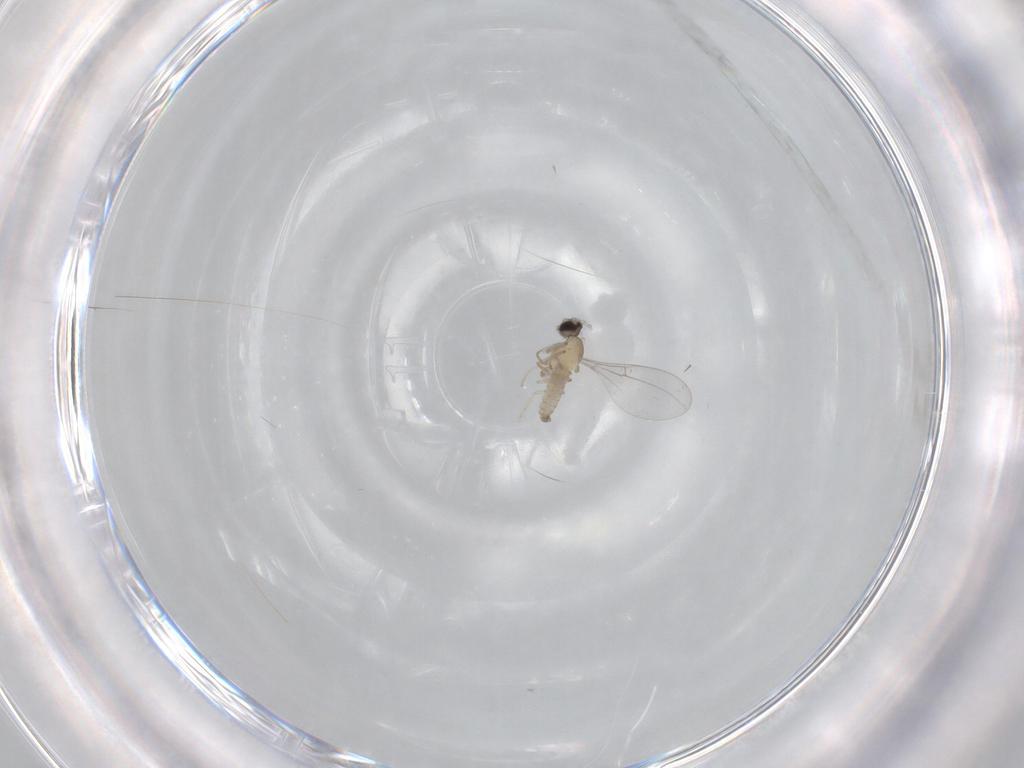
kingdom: Animalia
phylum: Arthropoda
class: Insecta
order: Diptera
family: Cecidomyiidae
